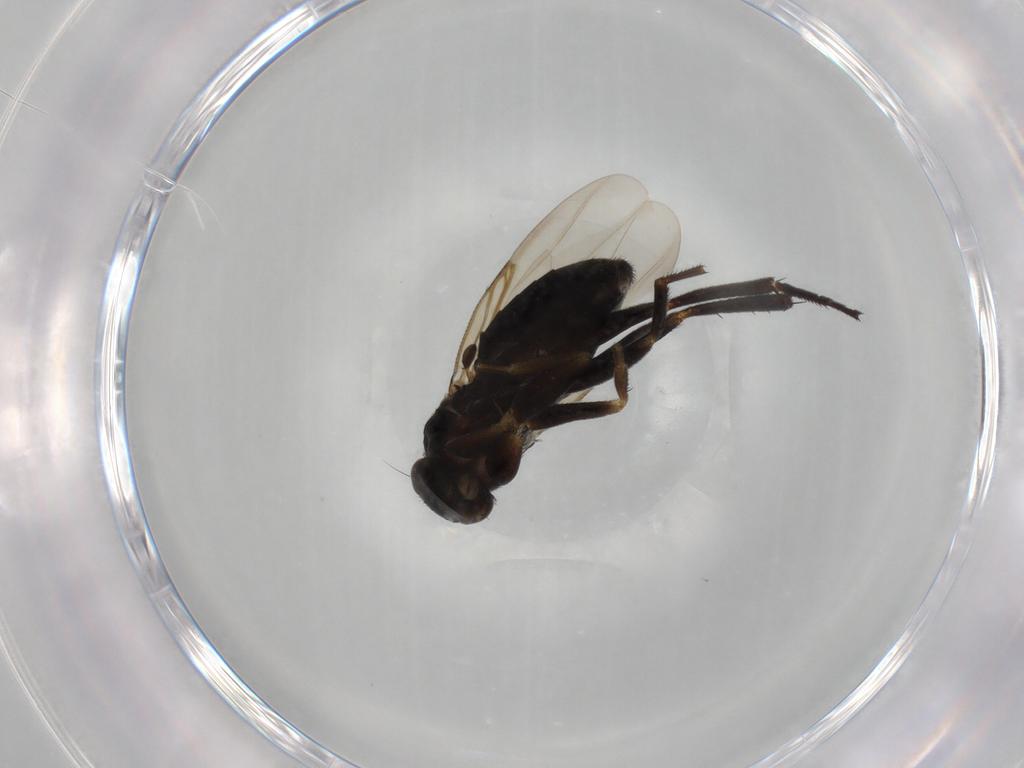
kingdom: Animalia
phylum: Arthropoda
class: Insecta
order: Diptera
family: Phoridae
